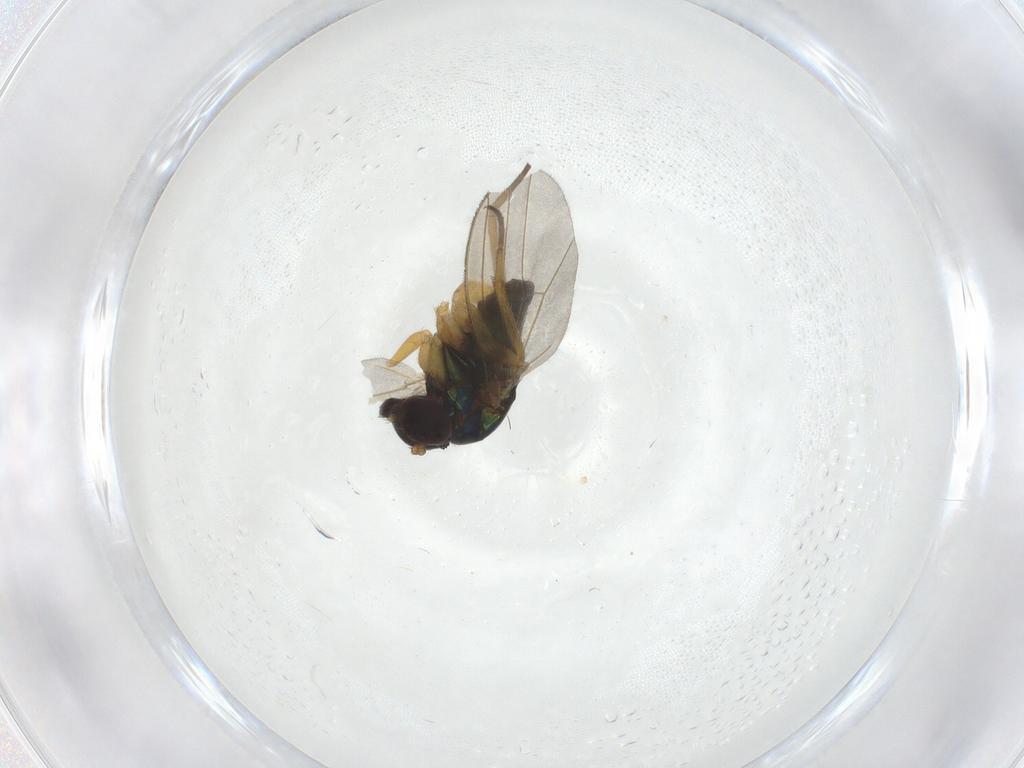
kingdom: Animalia
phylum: Arthropoda
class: Insecta
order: Diptera
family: Dolichopodidae
